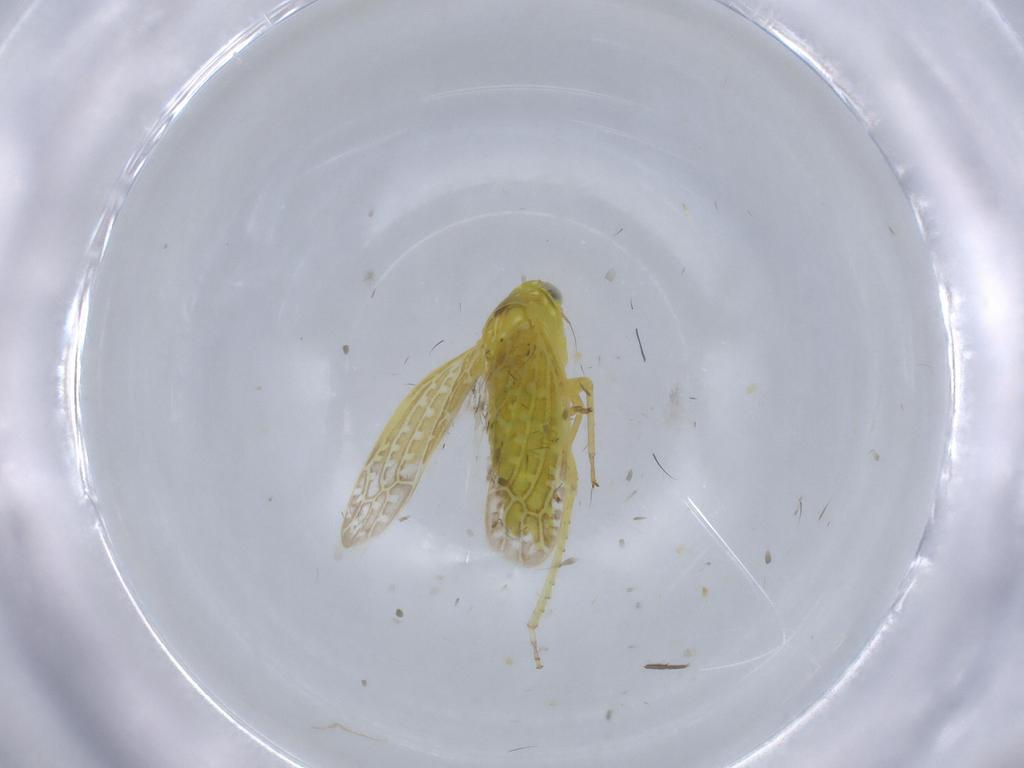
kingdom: Animalia
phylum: Arthropoda
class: Insecta
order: Hemiptera
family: Cicadellidae
